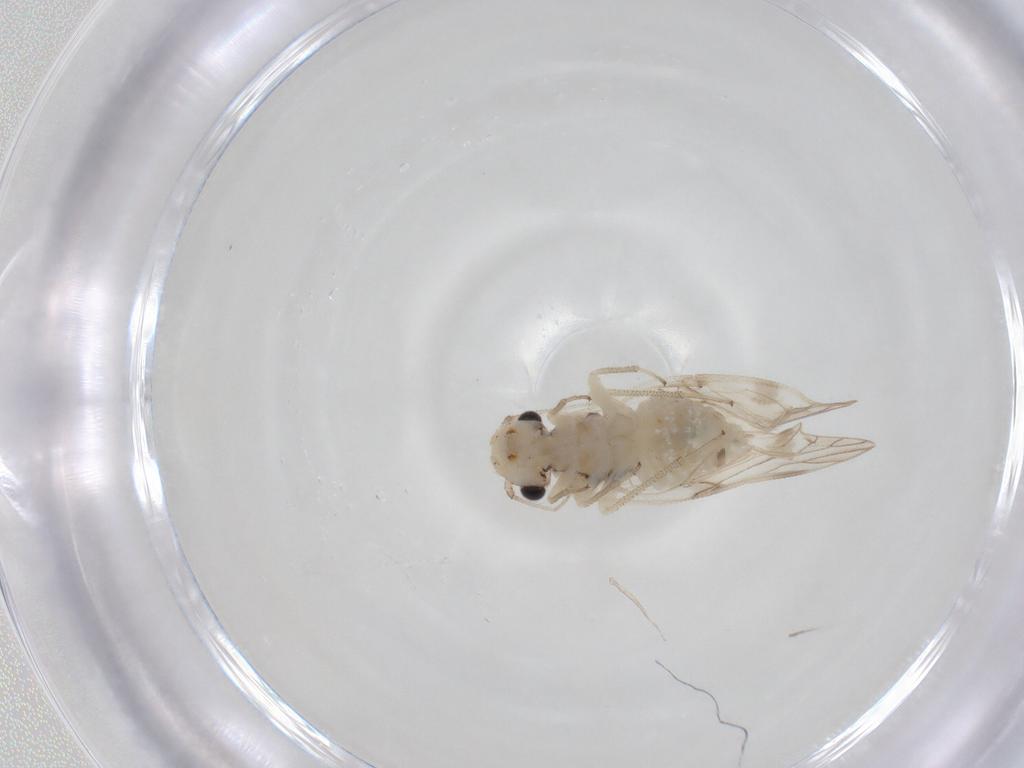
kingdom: Animalia
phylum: Arthropoda
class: Insecta
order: Psocodea
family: Caeciliusidae
